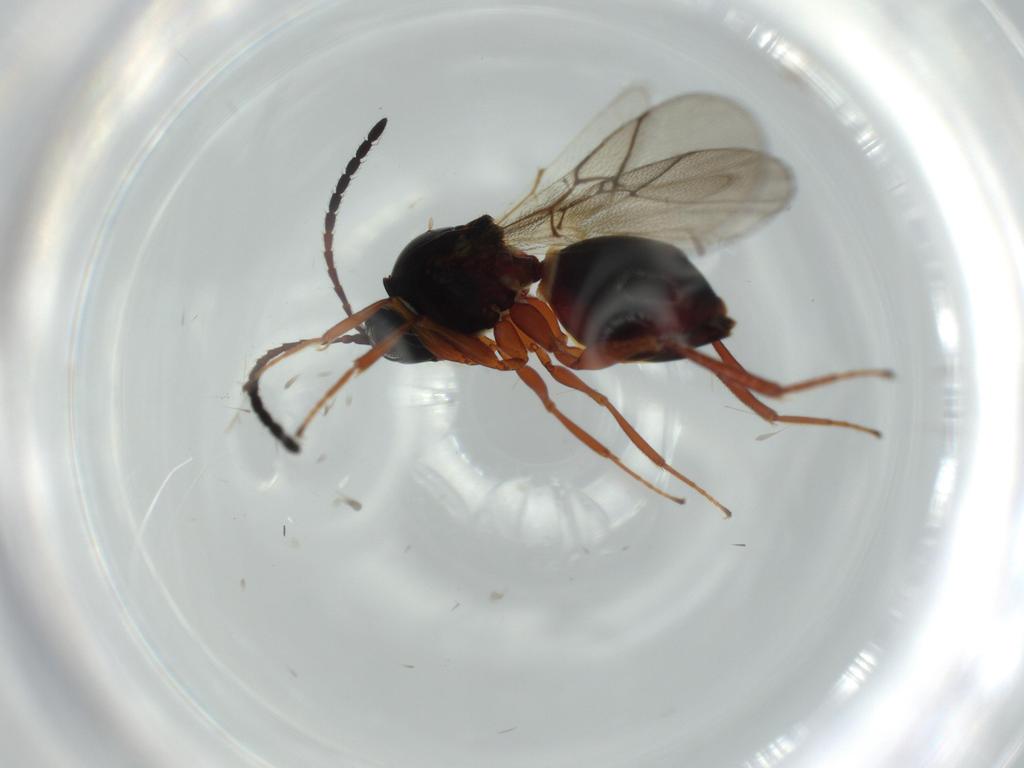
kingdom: Animalia
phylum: Arthropoda
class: Insecta
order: Hymenoptera
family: Figitidae
